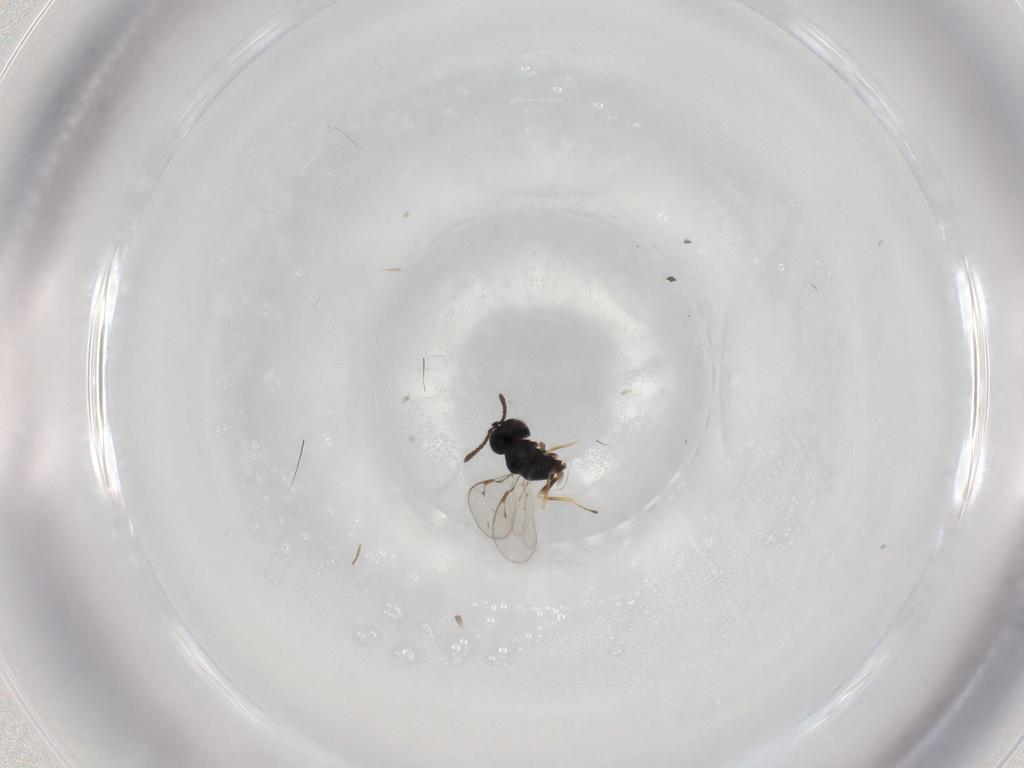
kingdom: Animalia
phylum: Arthropoda
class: Insecta
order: Hymenoptera
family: Pteromalidae
